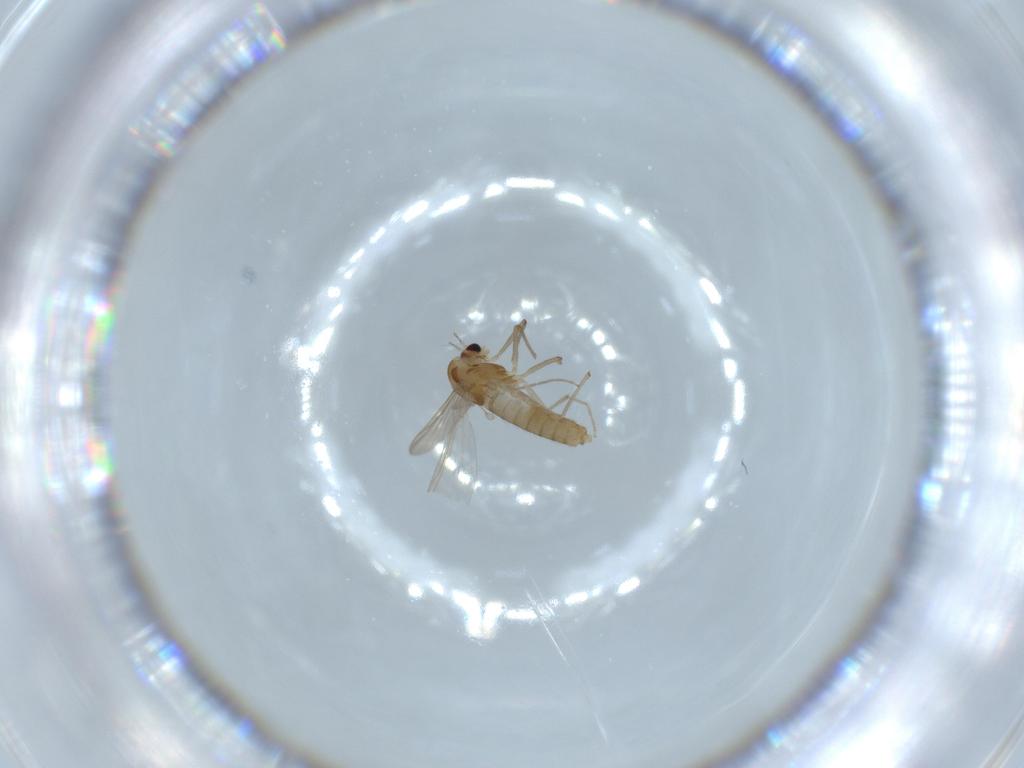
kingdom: Animalia
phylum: Arthropoda
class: Insecta
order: Diptera
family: Chironomidae
